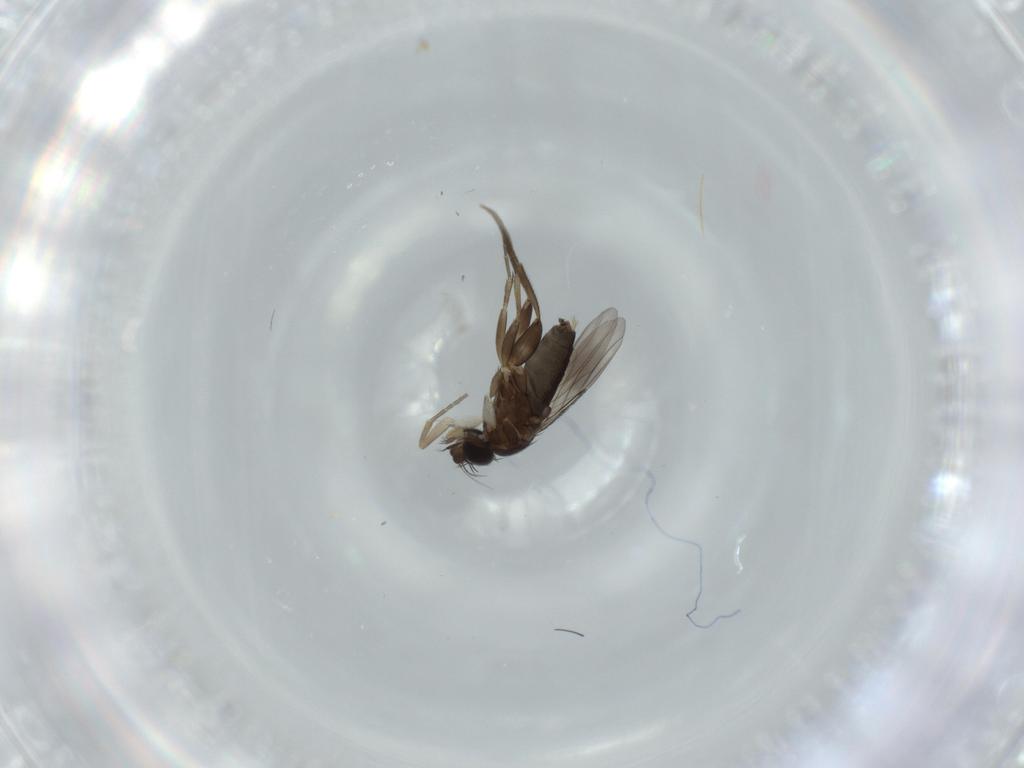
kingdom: Animalia
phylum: Arthropoda
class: Insecta
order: Diptera
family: Phoridae
